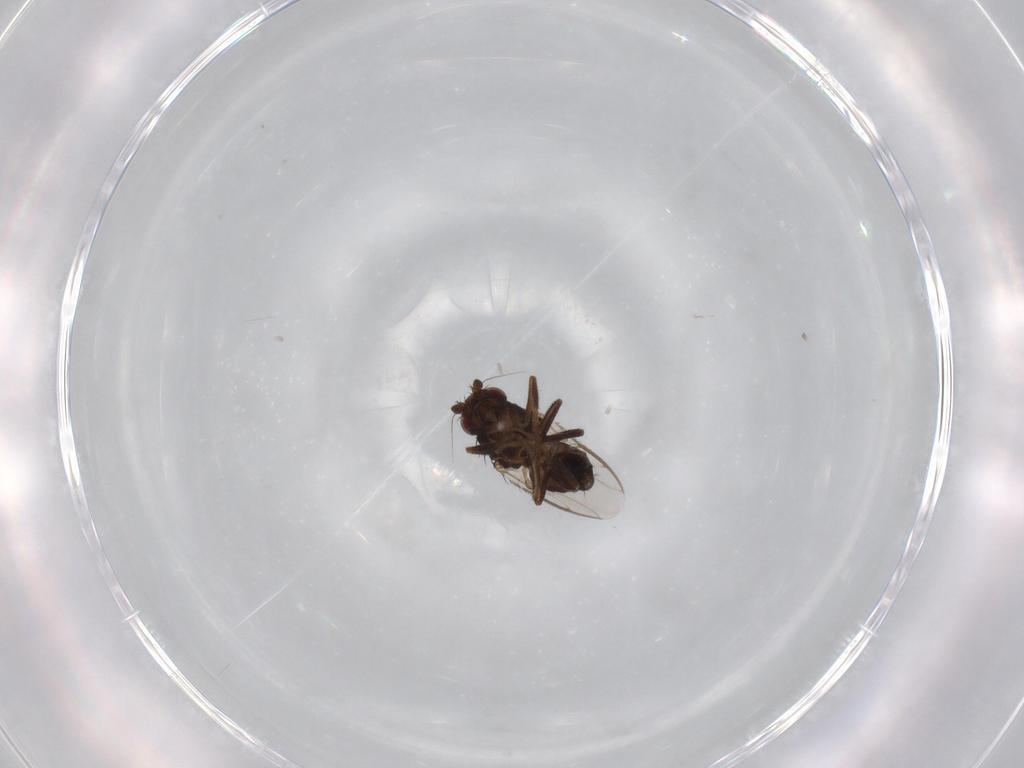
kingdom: Animalia
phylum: Arthropoda
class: Insecta
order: Diptera
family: Sphaeroceridae
